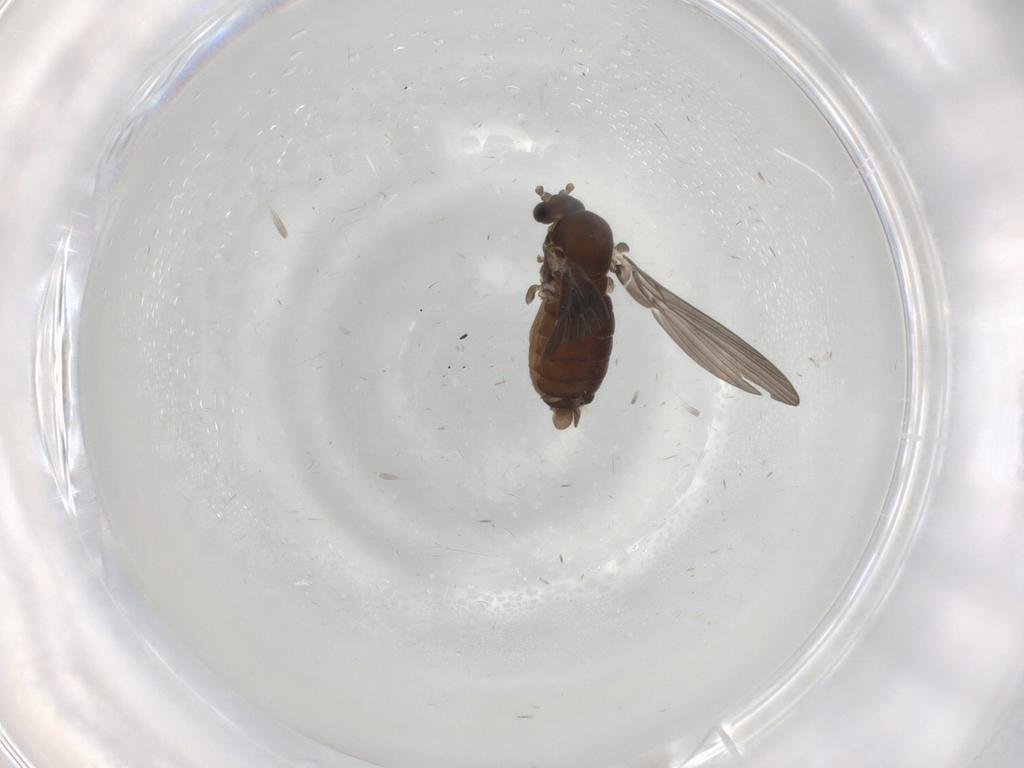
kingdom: Animalia
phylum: Arthropoda
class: Insecta
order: Diptera
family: Psychodidae
